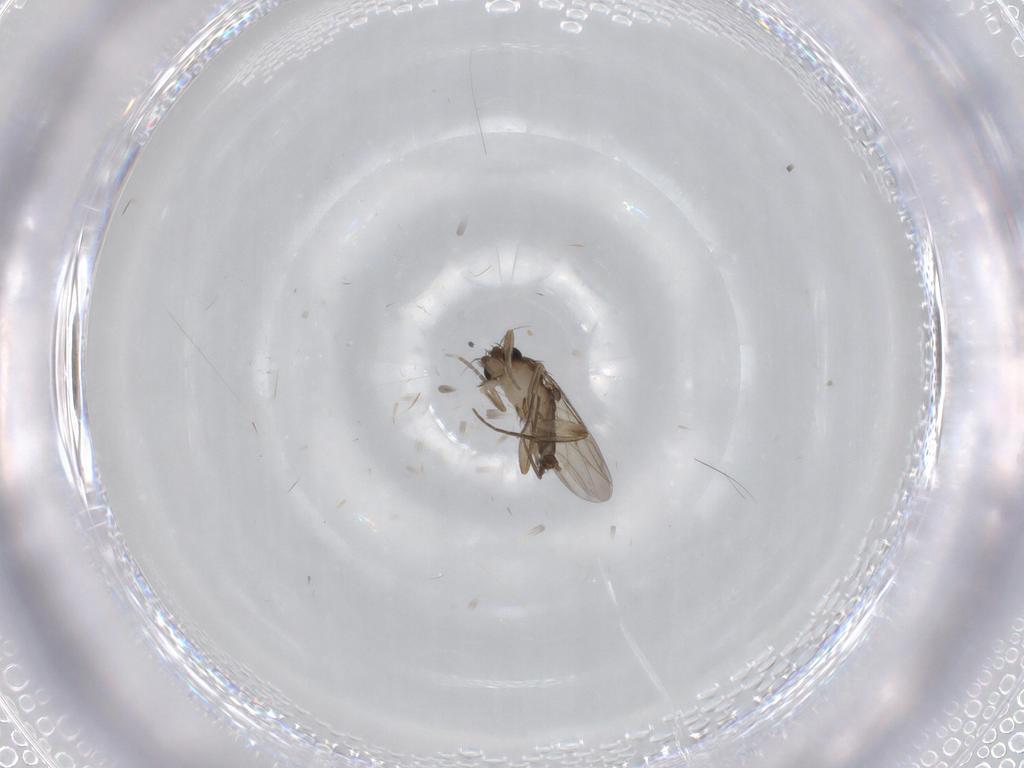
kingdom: Animalia
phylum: Arthropoda
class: Insecta
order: Diptera
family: Phoridae
